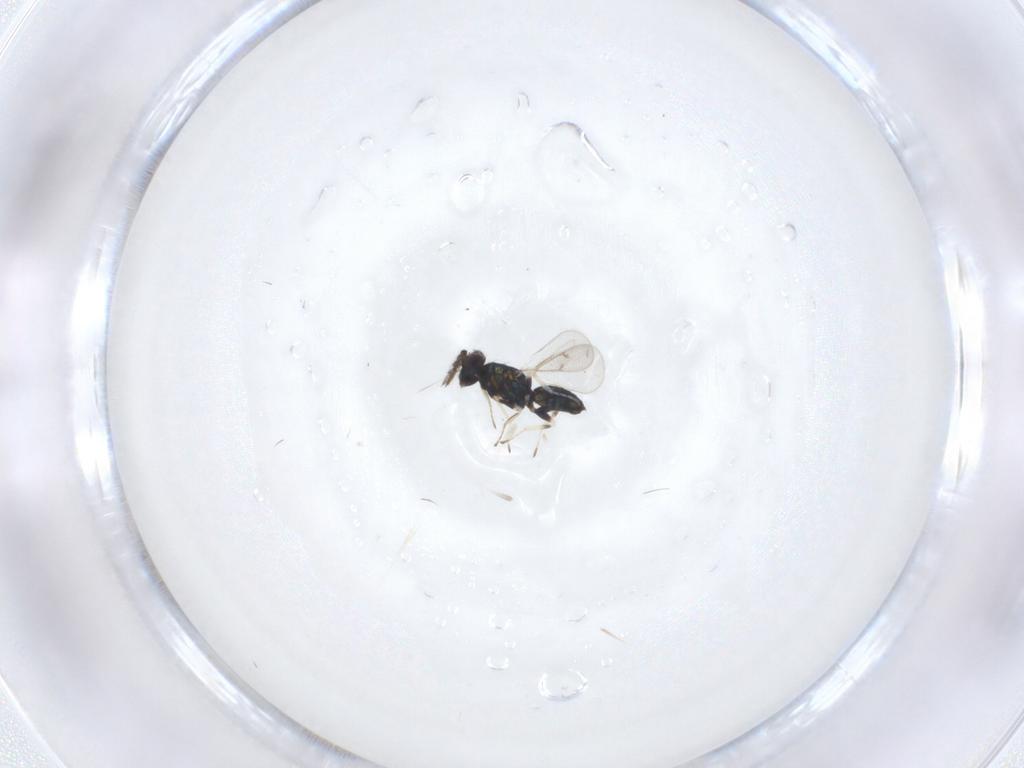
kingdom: Animalia
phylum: Arthropoda
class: Insecta
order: Hymenoptera
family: Eulophidae
